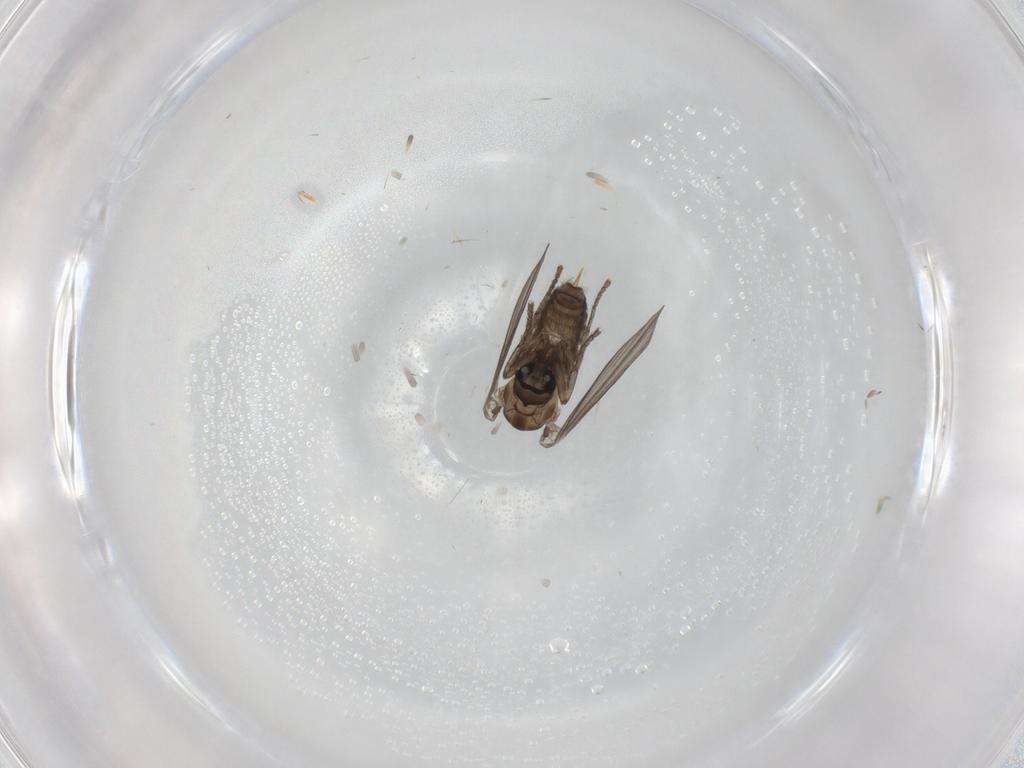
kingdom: Animalia
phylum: Arthropoda
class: Insecta
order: Diptera
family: Psychodidae
